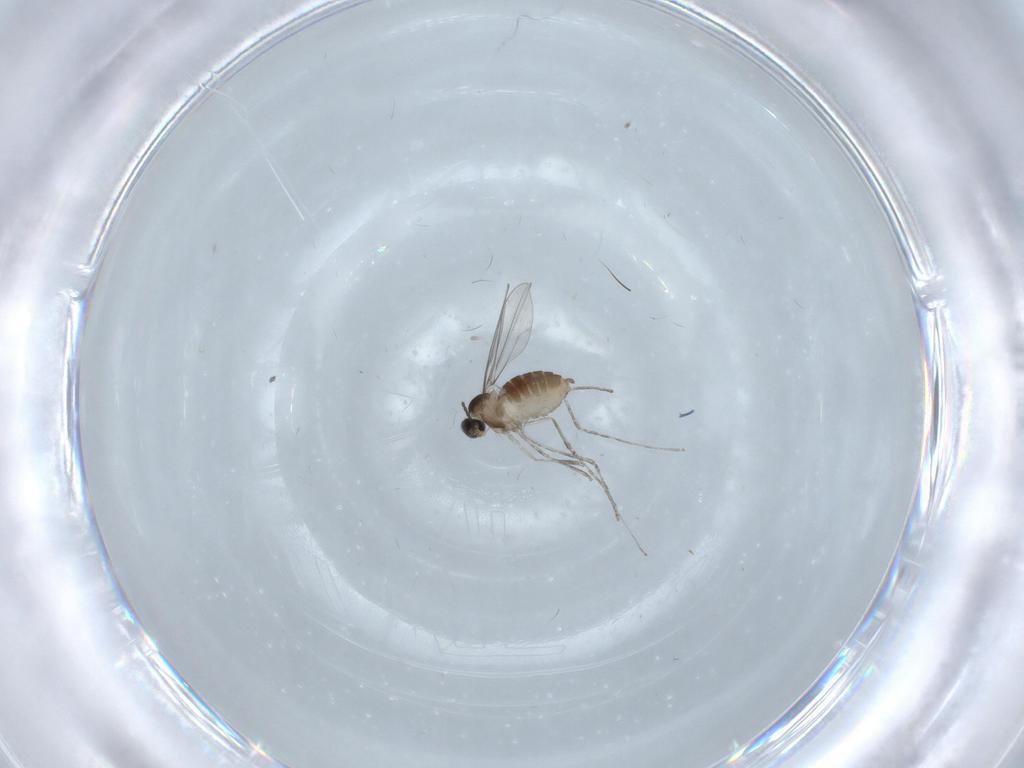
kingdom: Animalia
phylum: Arthropoda
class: Insecta
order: Diptera
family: Cecidomyiidae
